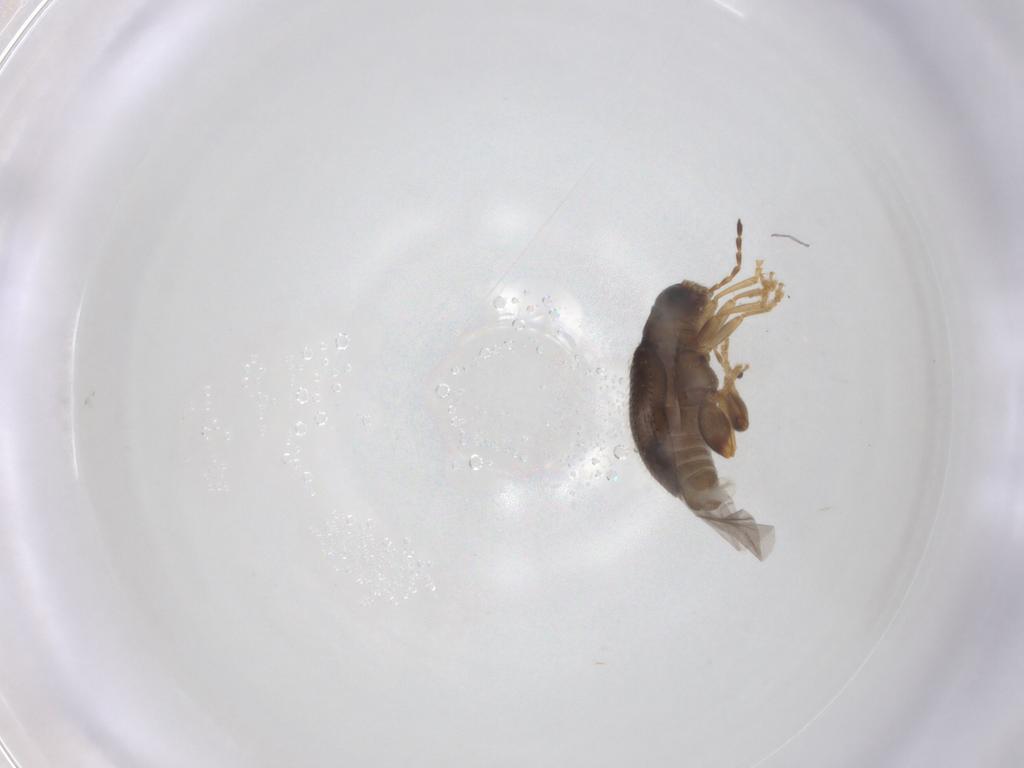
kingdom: Animalia
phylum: Arthropoda
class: Insecta
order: Coleoptera
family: Chrysomelidae
